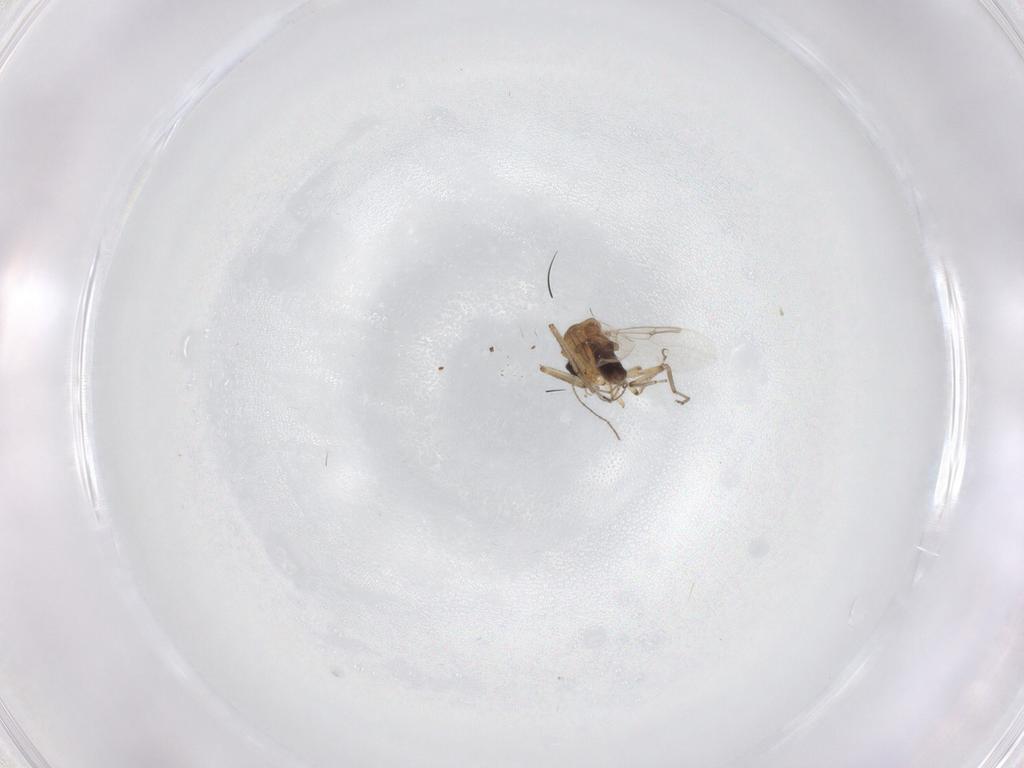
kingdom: Animalia
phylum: Arthropoda
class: Insecta
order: Diptera
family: Ceratopogonidae
